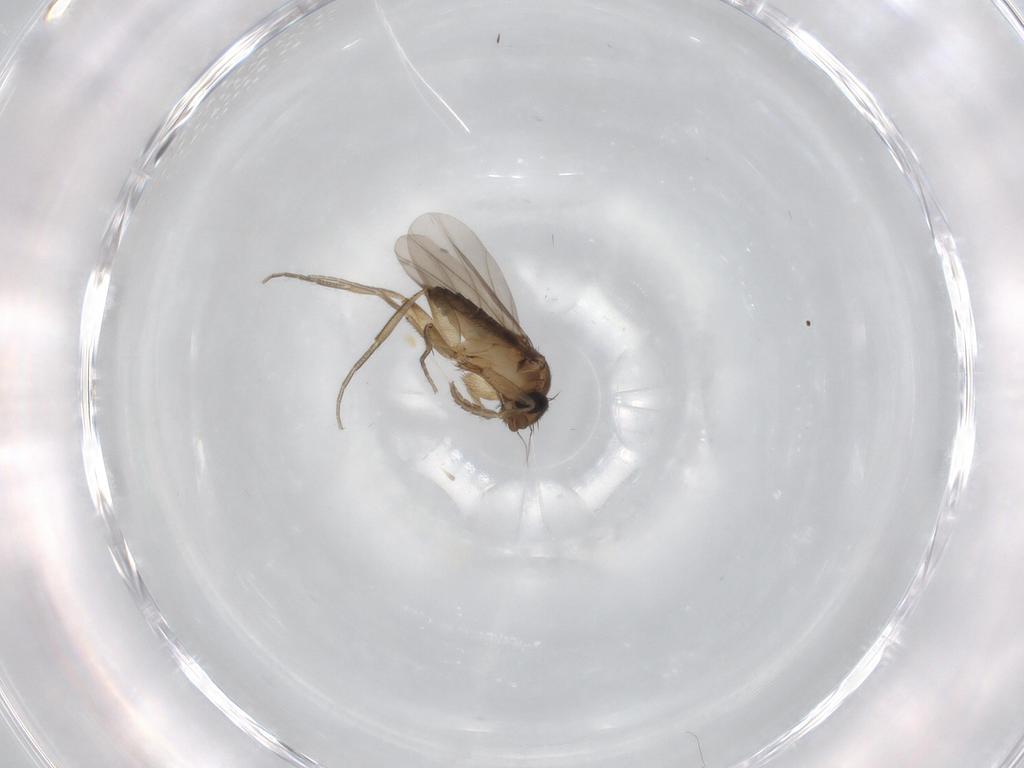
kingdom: Animalia
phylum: Arthropoda
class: Insecta
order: Diptera
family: Phoridae
